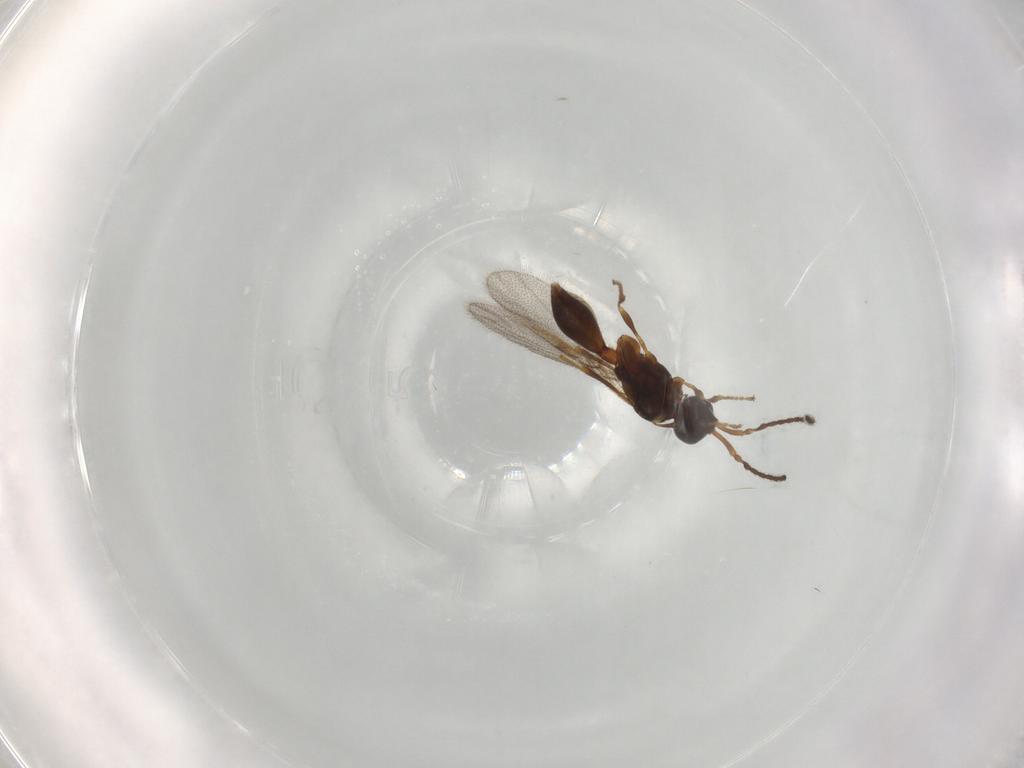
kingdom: Animalia
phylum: Arthropoda
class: Insecta
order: Hymenoptera
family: Diapriidae
